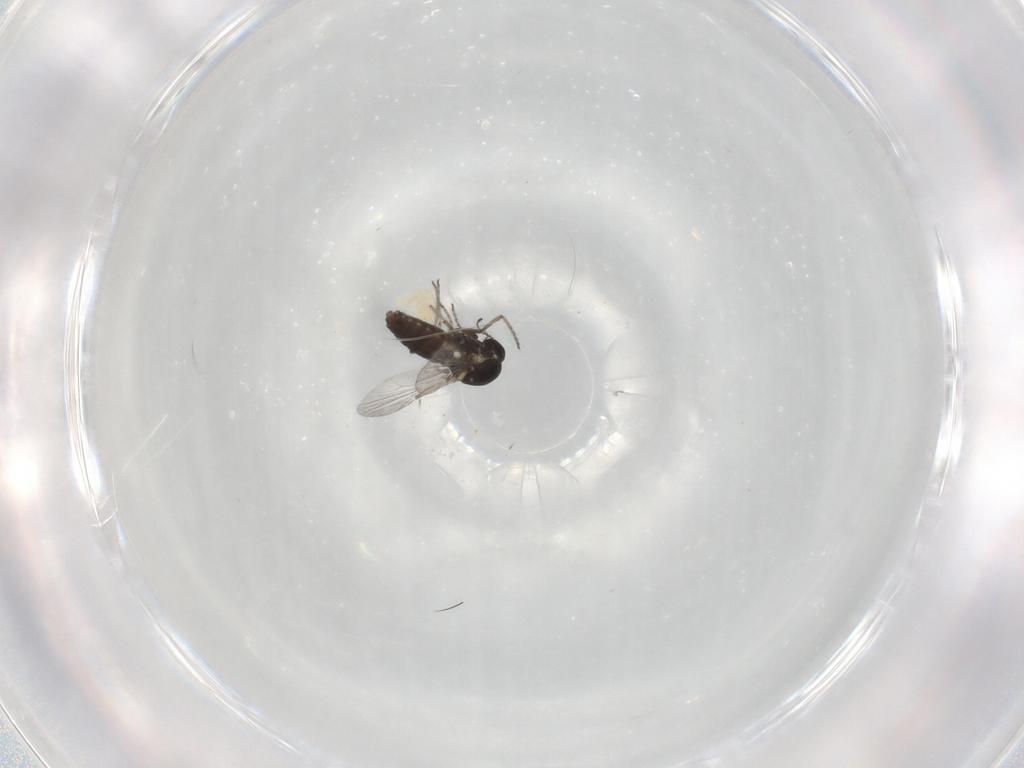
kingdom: Animalia
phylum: Arthropoda
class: Insecta
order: Diptera
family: Ceratopogonidae
